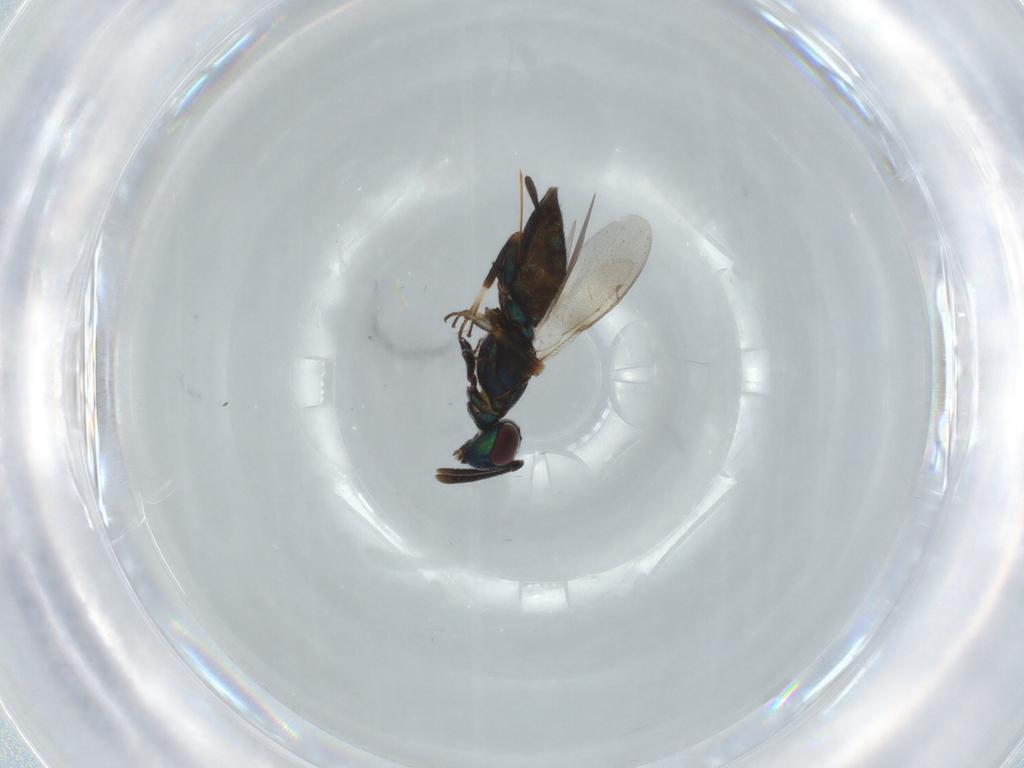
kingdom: Animalia
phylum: Arthropoda
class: Insecta
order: Hymenoptera
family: Eupelmidae
